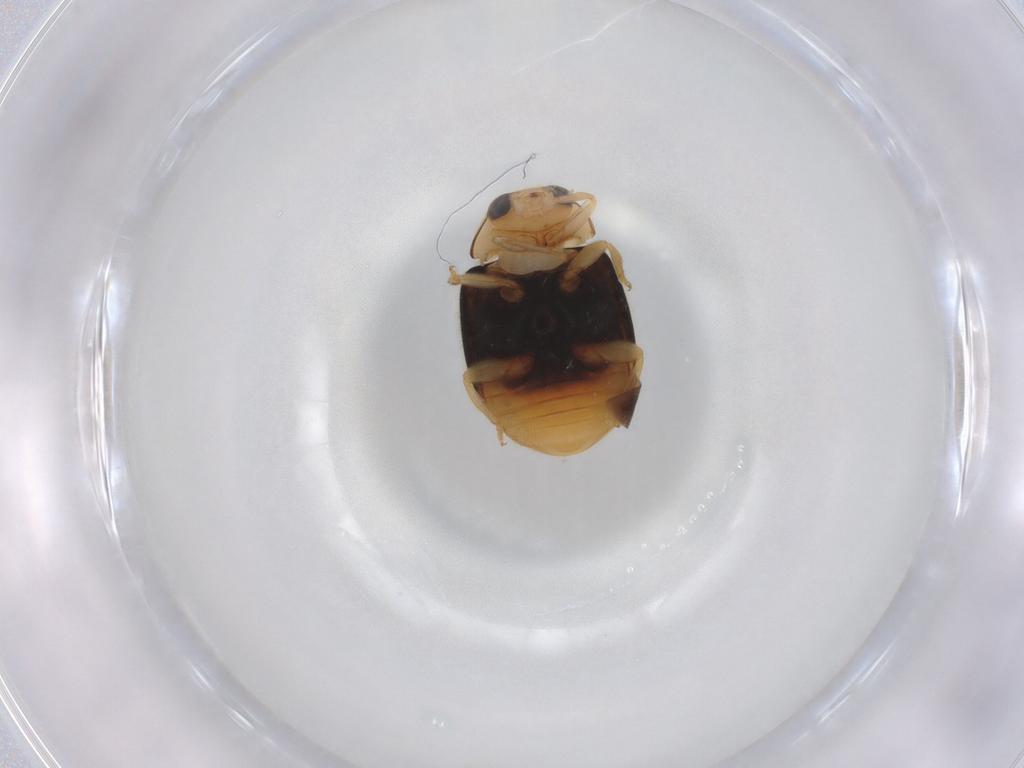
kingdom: Animalia
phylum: Arthropoda
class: Insecta
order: Coleoptera
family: Coccinellidae
